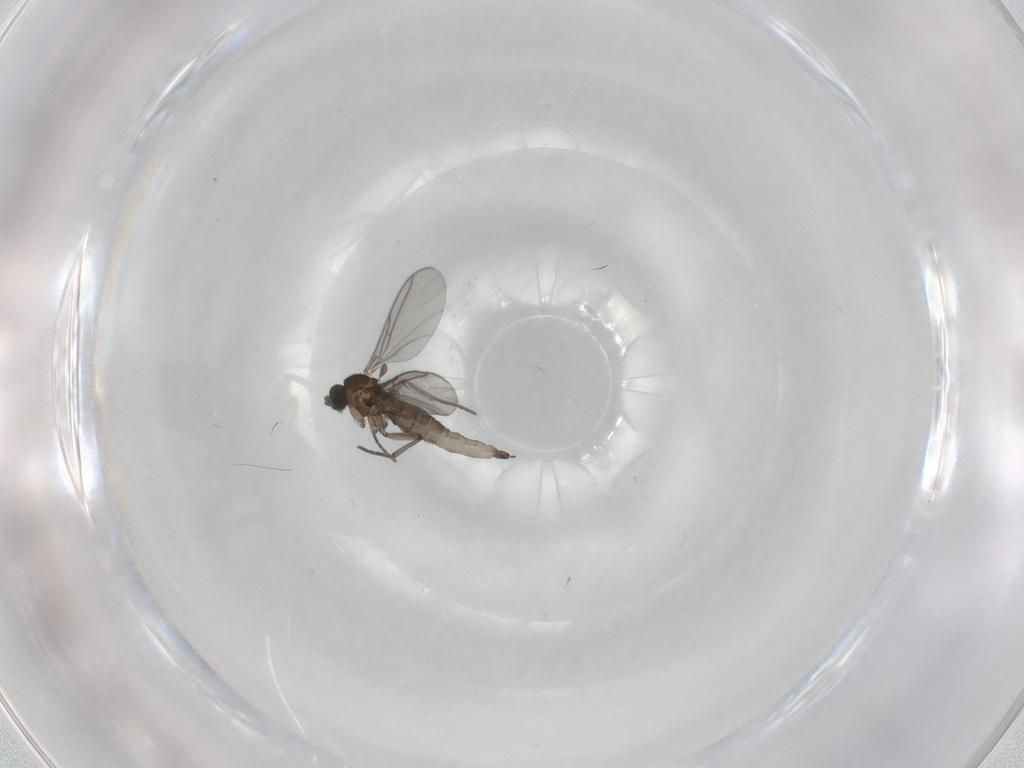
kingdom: Animalia
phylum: Arthropoda
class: Insecta
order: Diptera
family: Sciaridae
